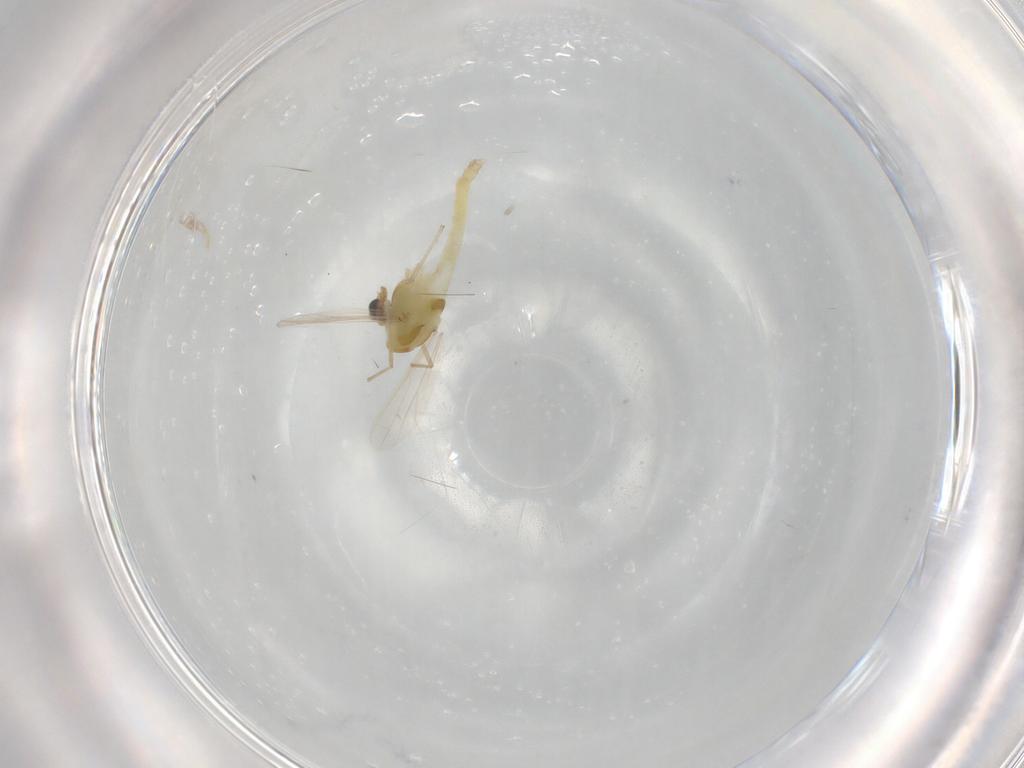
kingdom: Animalia
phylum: Arthropoda
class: Insecta
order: Diptera
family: Chironomidae
